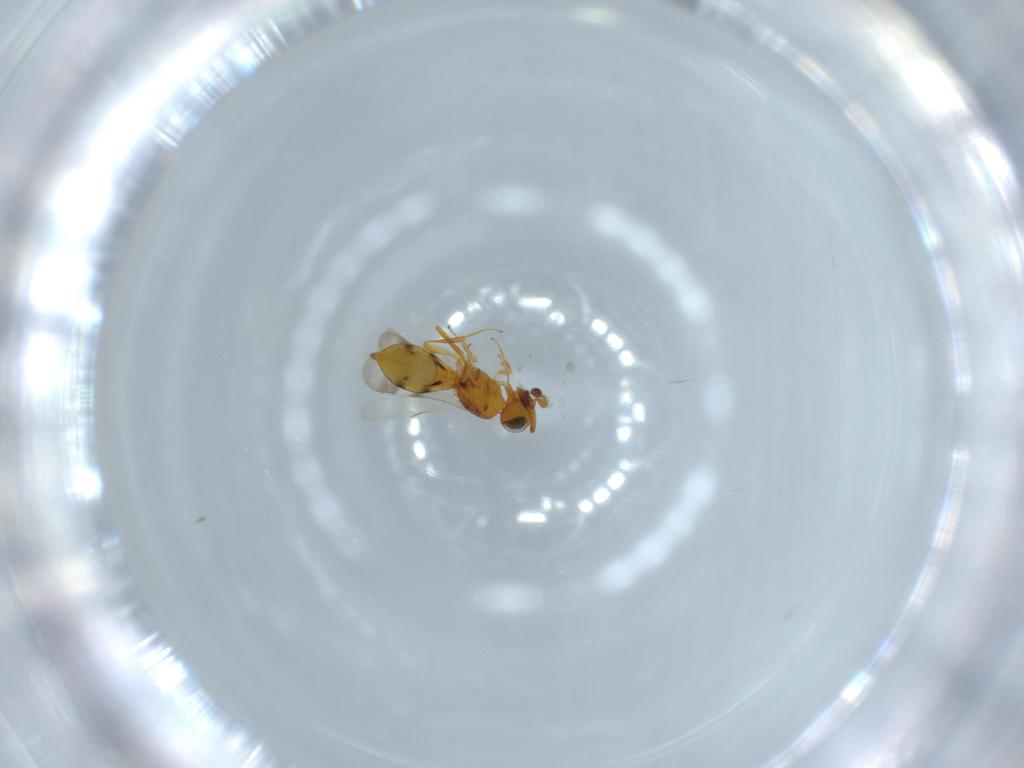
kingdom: Animalia
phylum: Arthropoda
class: Insecta
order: Hymenoptera
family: Scelionidae
